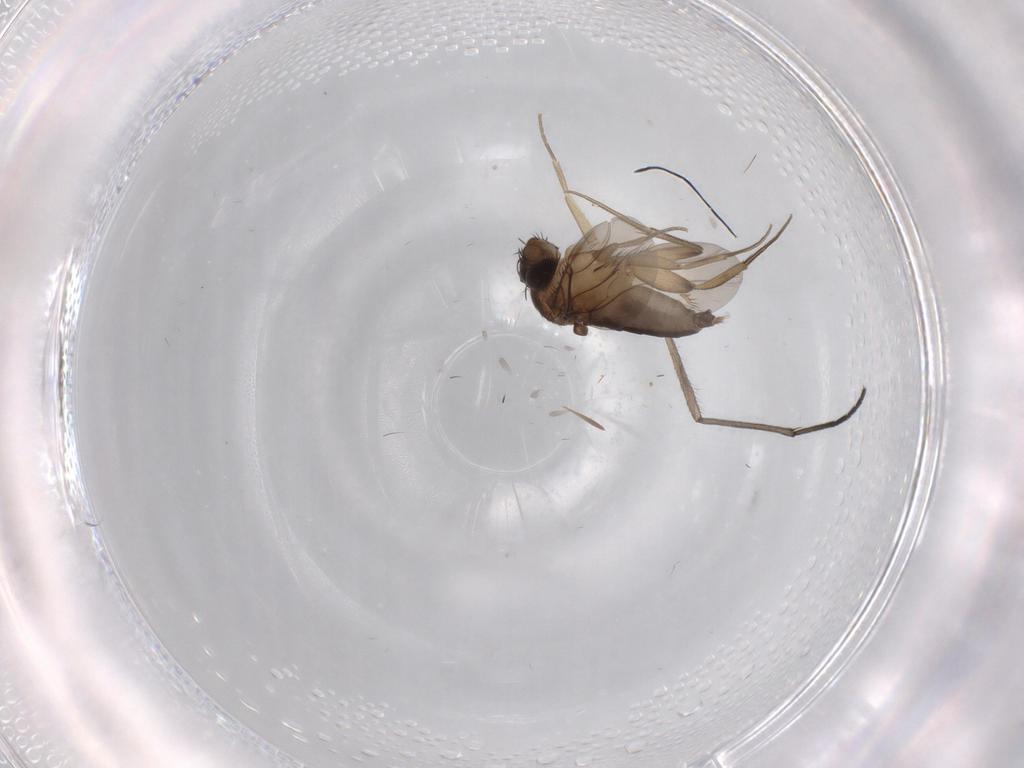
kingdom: Animalia
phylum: Arthropoda
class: Insecta
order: Diptera
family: Phoridae
